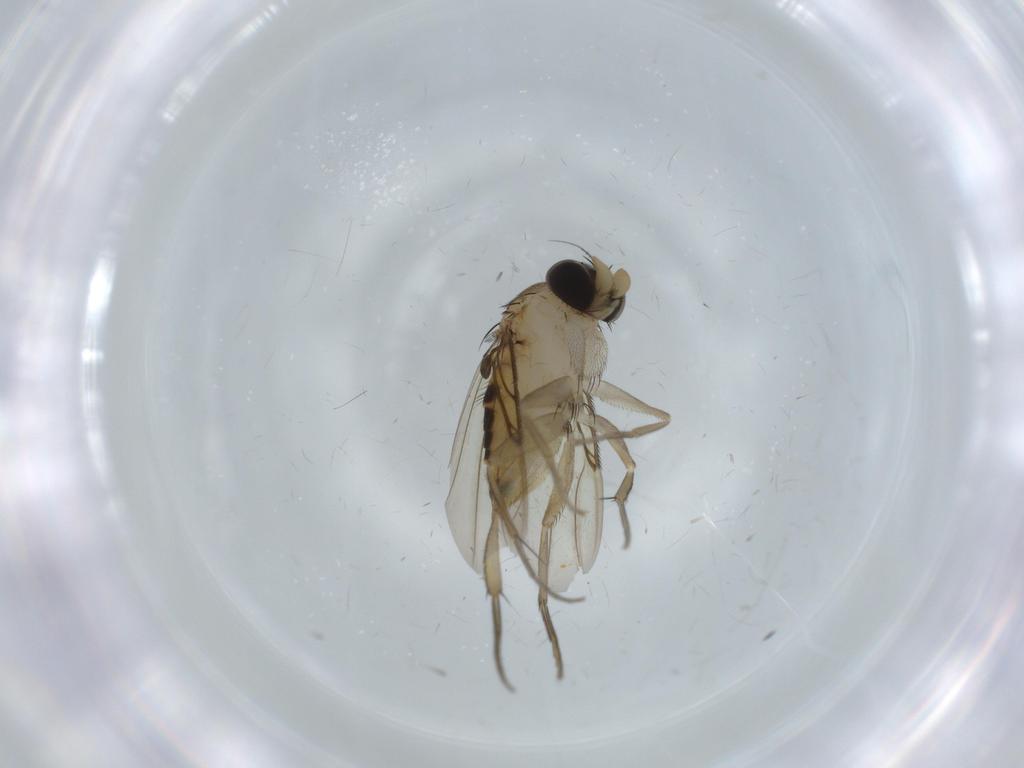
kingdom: Animalia
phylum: Arthropoda
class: Insecta
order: Diptera
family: Phoridae
